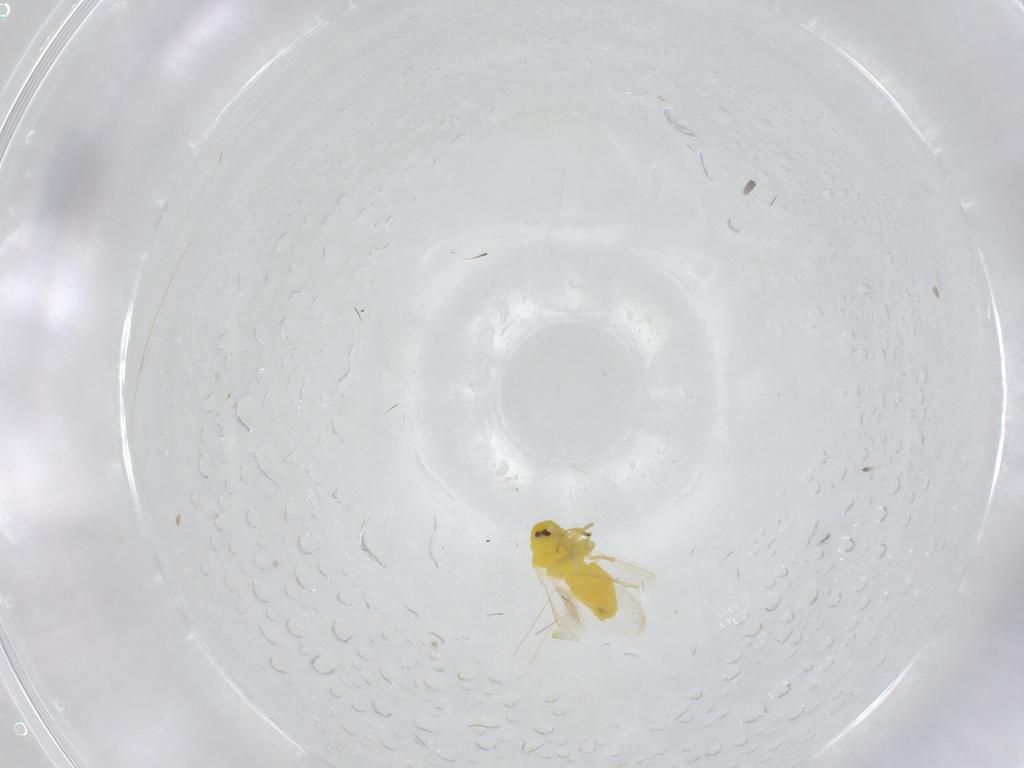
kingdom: Animalia
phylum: Arthropoda
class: Insecta
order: Hemiptera
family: Aleyrodidae
